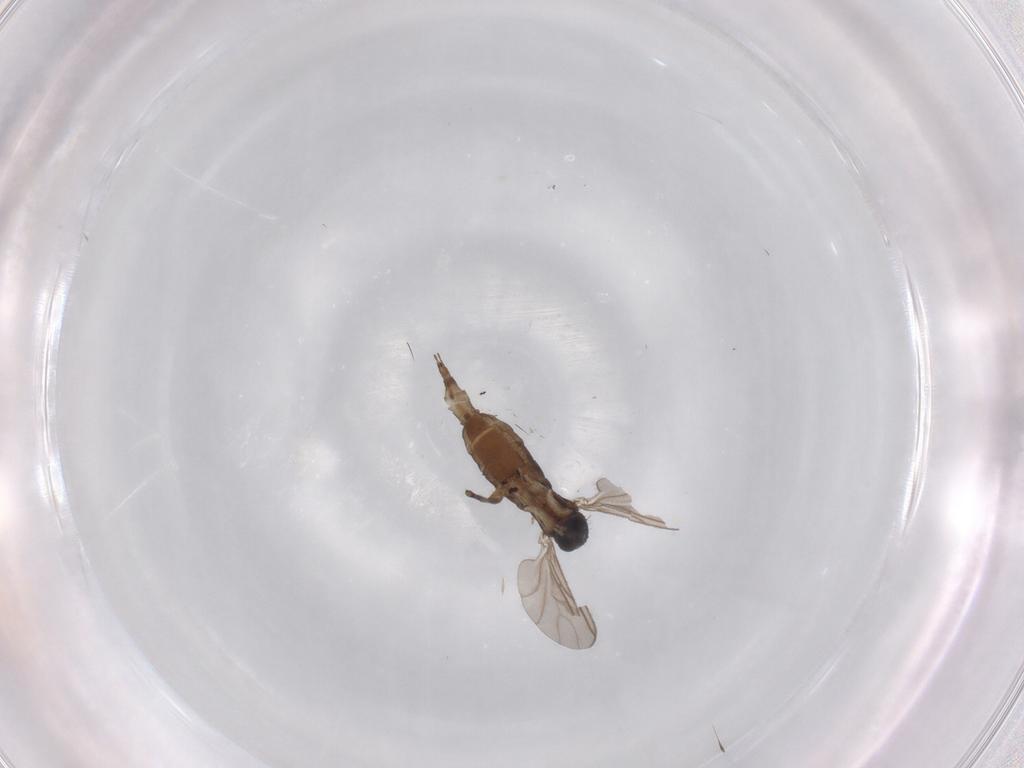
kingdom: Animalia
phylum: Arthropoda
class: Insecta
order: Diptera
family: Sciaridae
